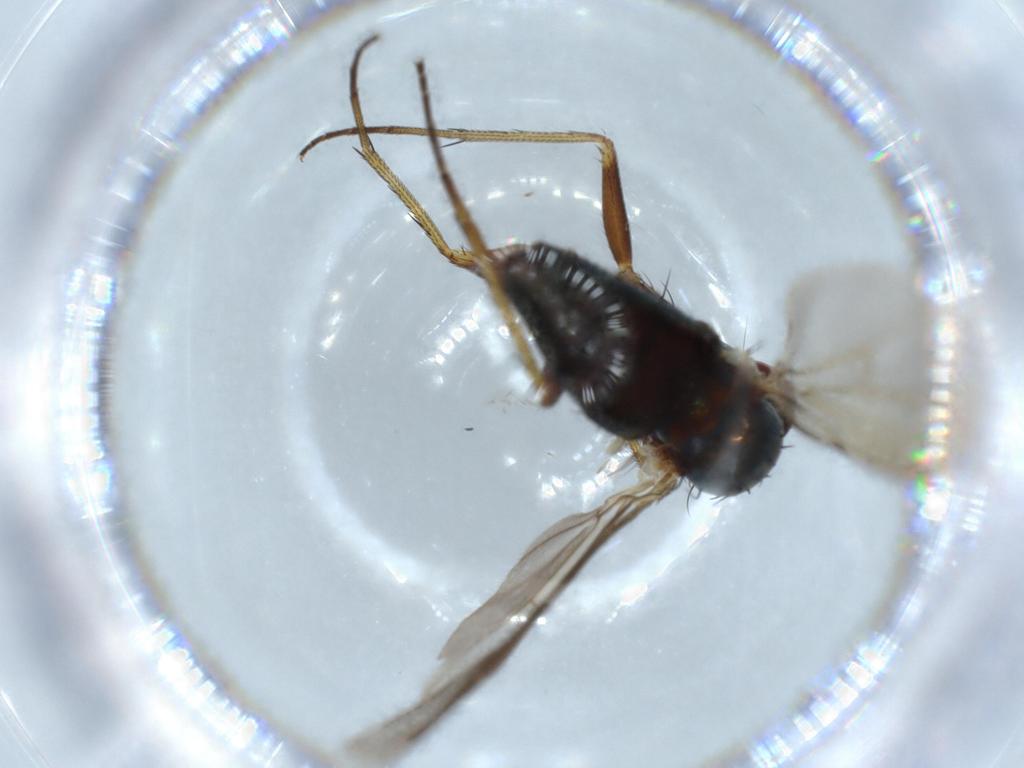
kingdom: Animalia
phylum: Arthropoda
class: Insecta
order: Diptera
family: Dolichopodidae
